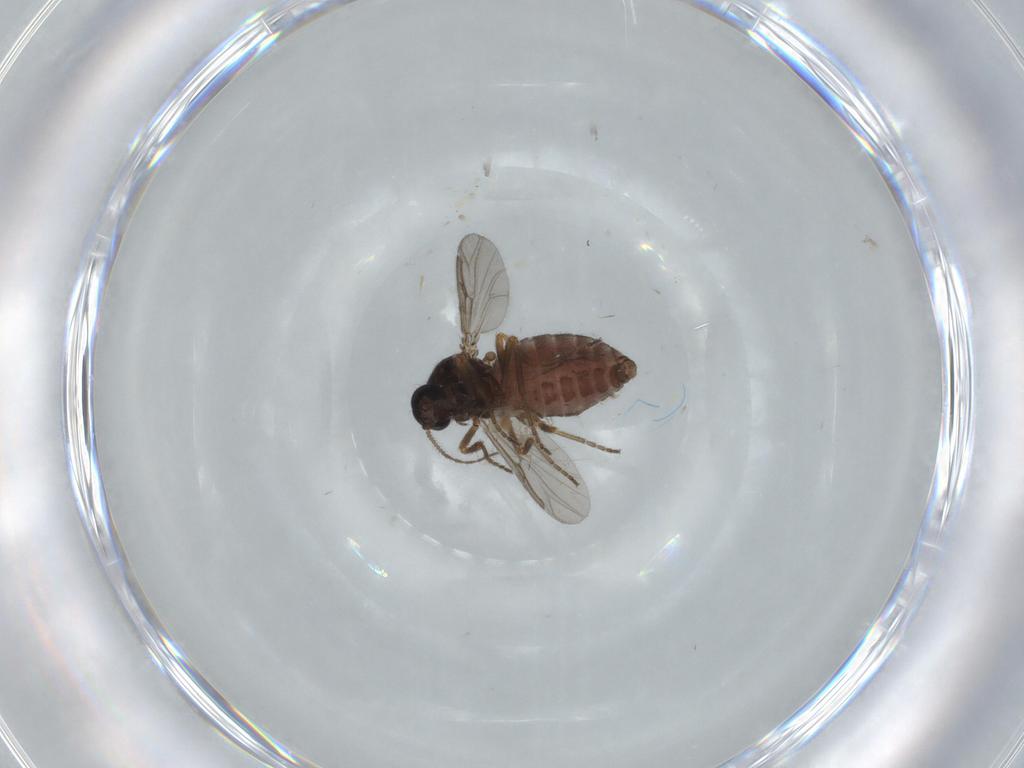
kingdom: Animalia
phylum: Arthropoda
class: Insecta
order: Diptera
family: Ceratopogonidae
